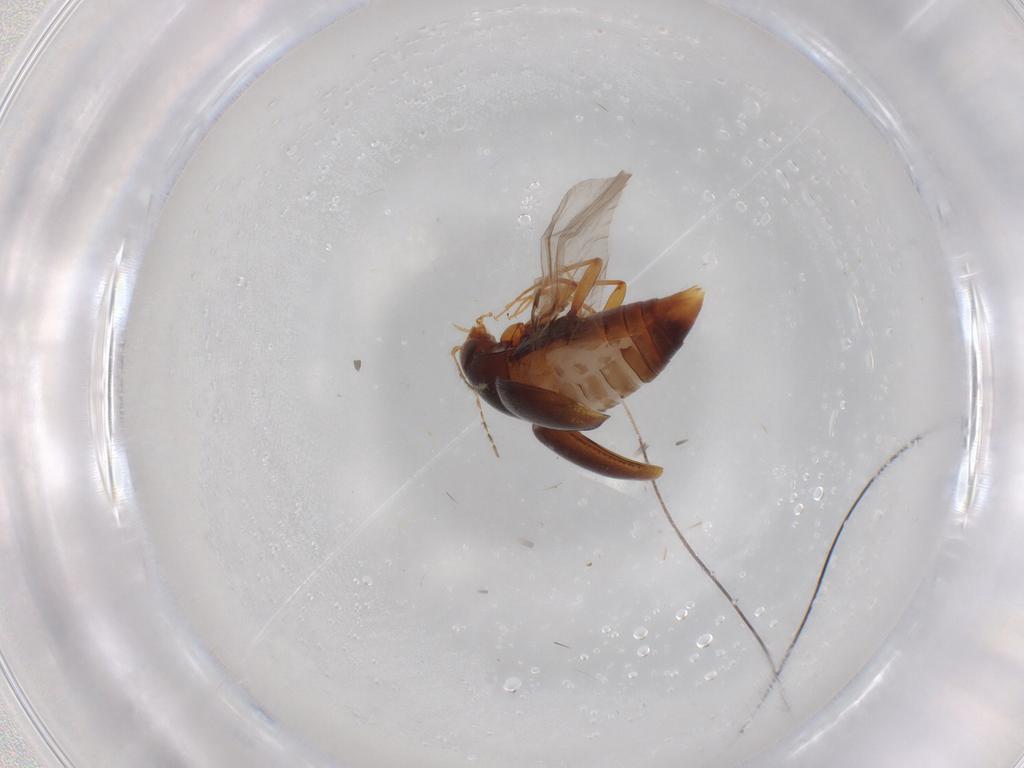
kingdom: Animalia
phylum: Arthropoda
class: Insecta
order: Coleoptera
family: Staphylinidae
